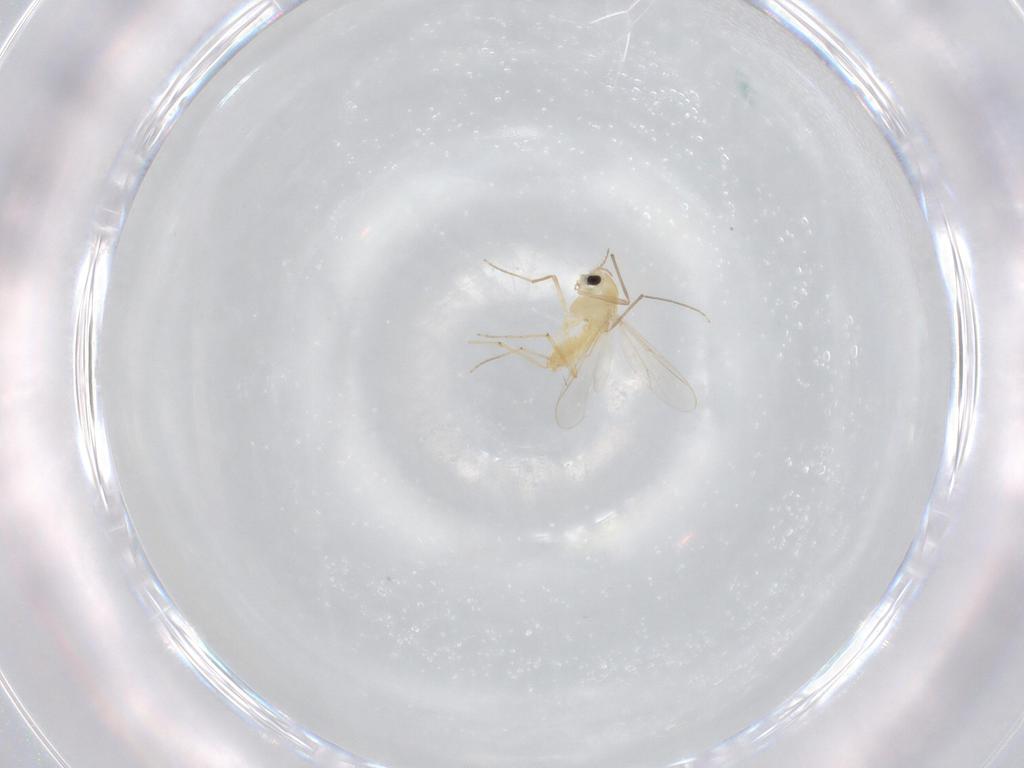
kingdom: Animalia
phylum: Arthropoda
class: Insecta
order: Diptera
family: Chironomidae
